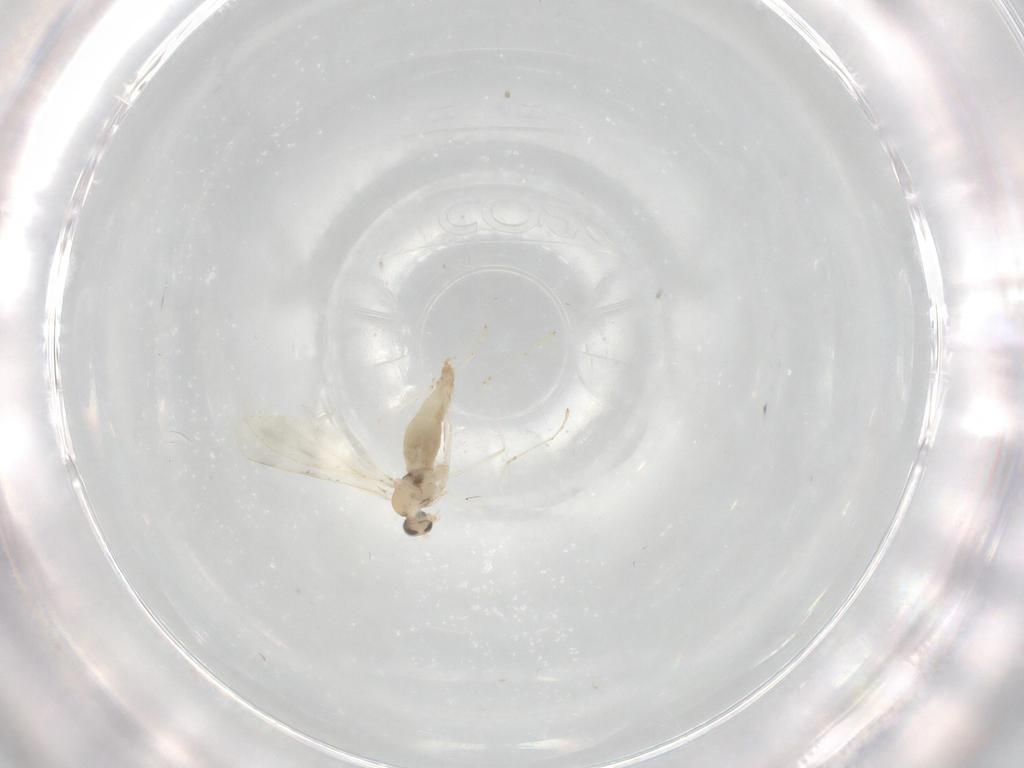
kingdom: Animalia
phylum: Arthropoda
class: Insecta
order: Diptera
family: Cecidomyiidae
